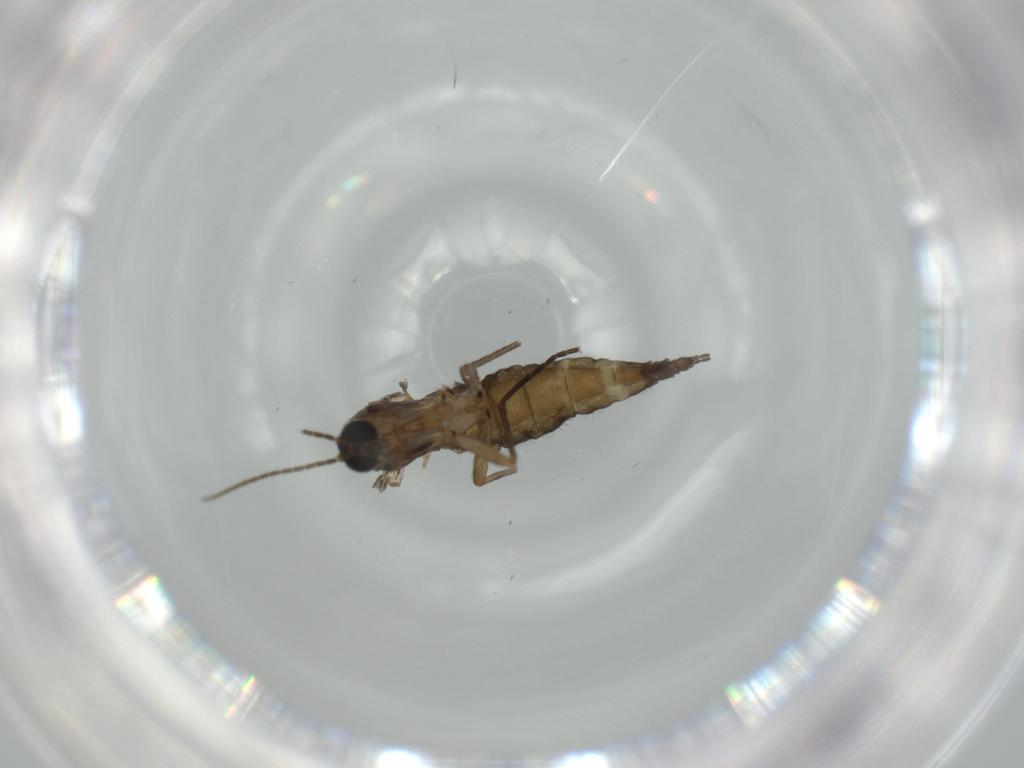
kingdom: Animalia
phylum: Arthropoda
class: Insecta
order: Diptera
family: Sciaridae
